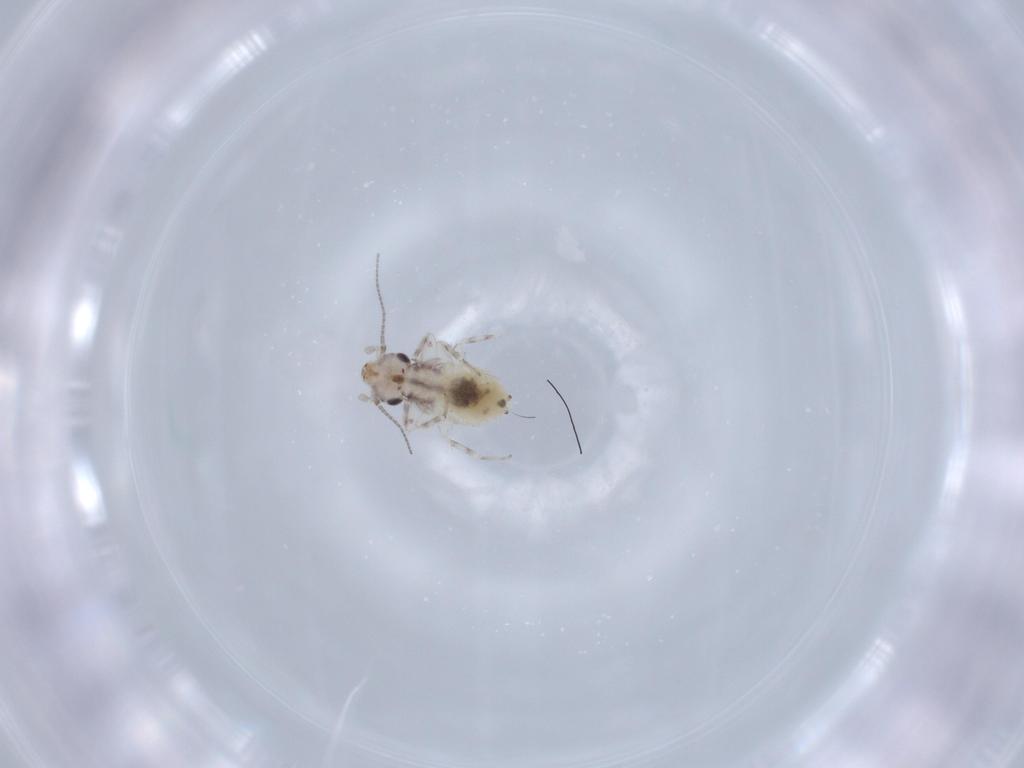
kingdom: Animalia
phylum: Arthropoda
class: Insecta
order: Psocodea
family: Lepidopsocidae
